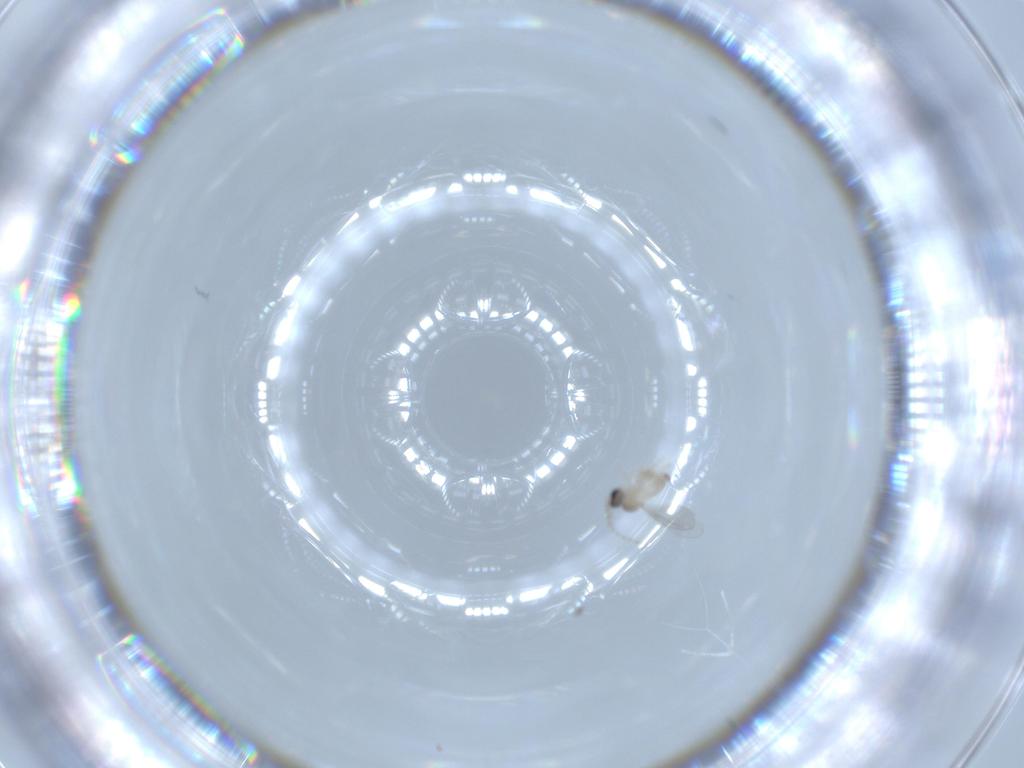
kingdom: Animalia
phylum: Arthropoda
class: Insecta
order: Diptera
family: Cecidomyiidae
